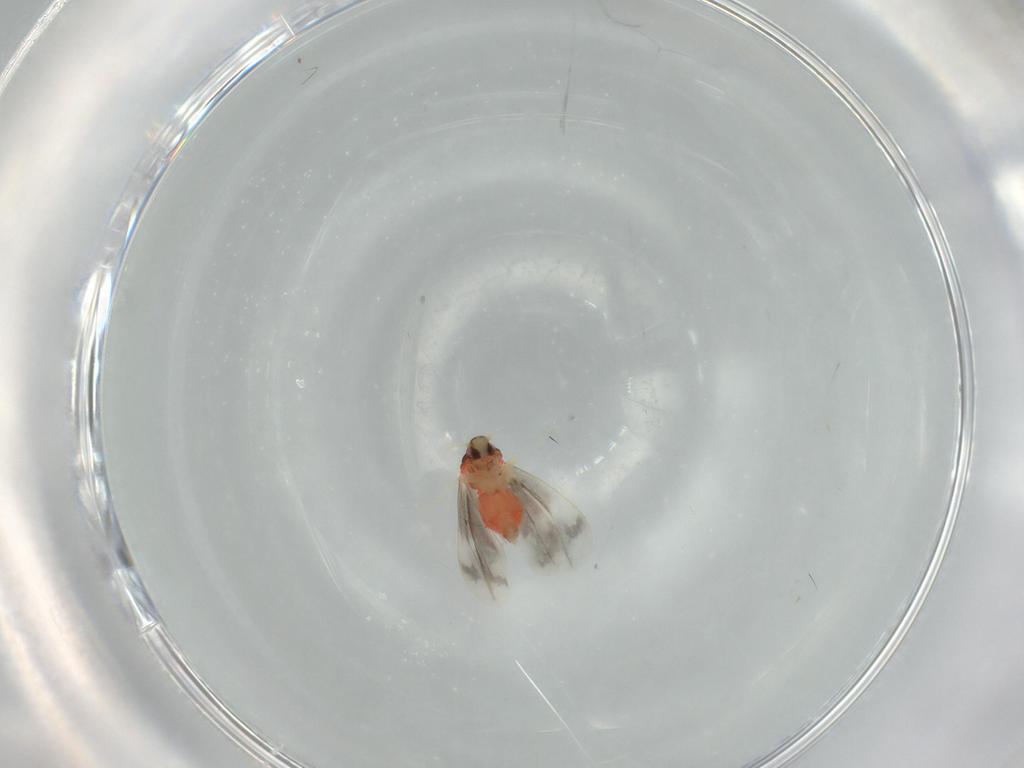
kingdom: Animalia
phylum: Arthropoda
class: Insecta
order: Hemiptera
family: Aleyrodidae
